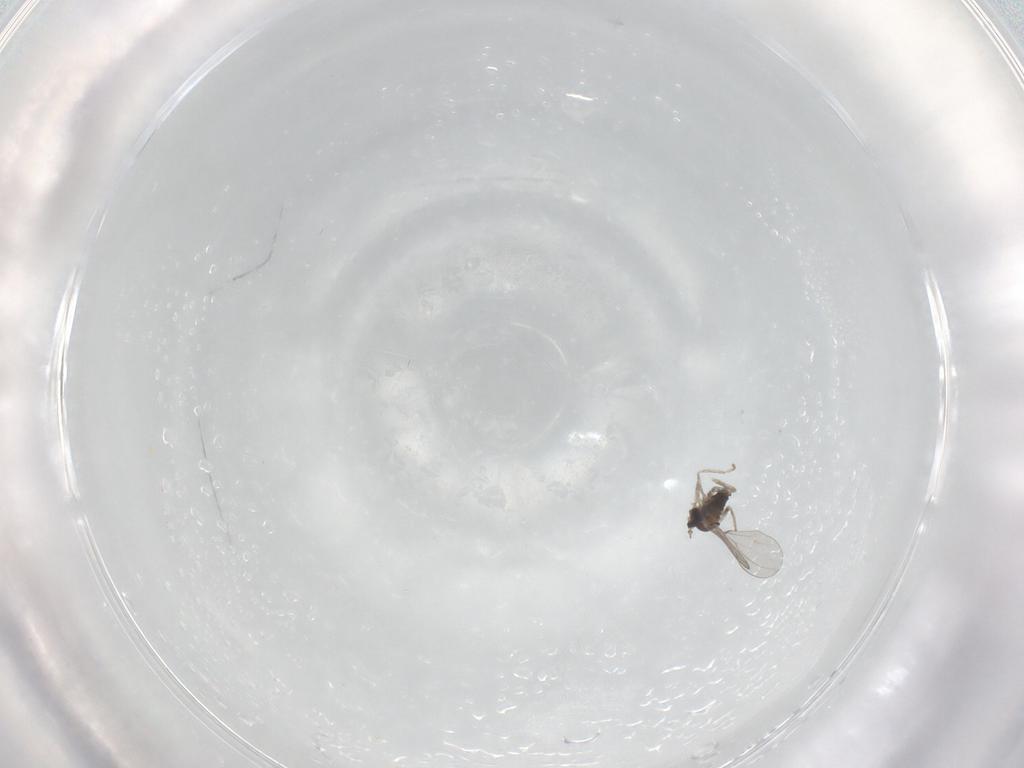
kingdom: Animalia
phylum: Arthropoda
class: Insecta
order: Diptera
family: Cecidomyiidae
